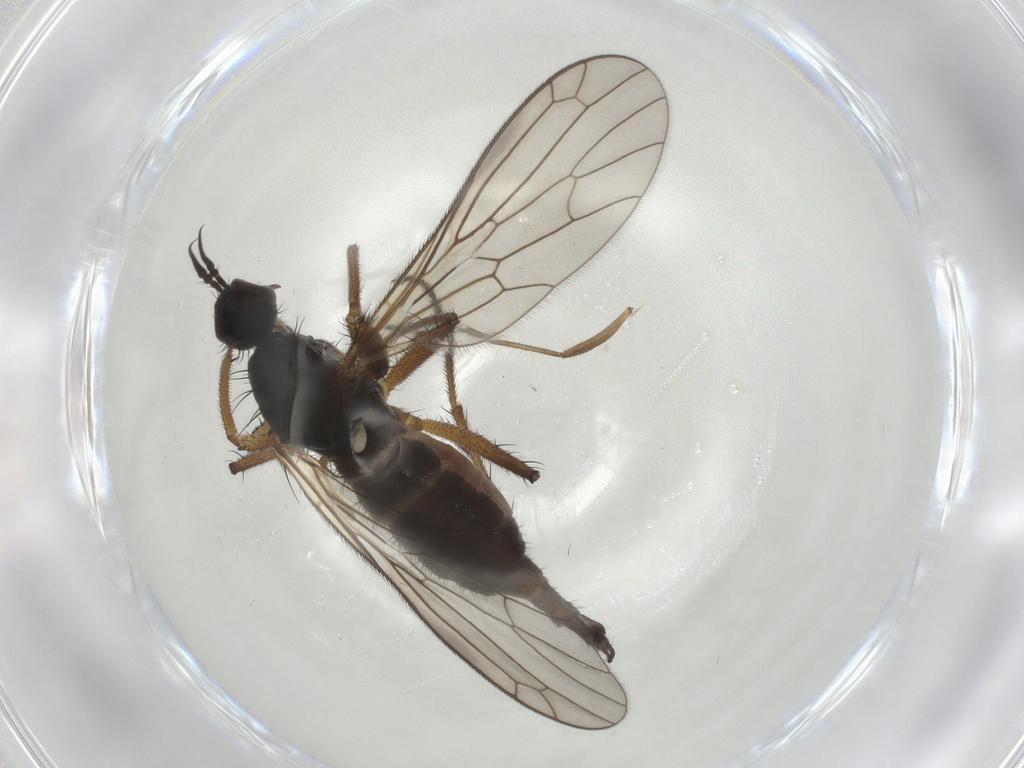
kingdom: Animalia
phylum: Arthropoda
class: Insecta
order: Diptera
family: Empididae
